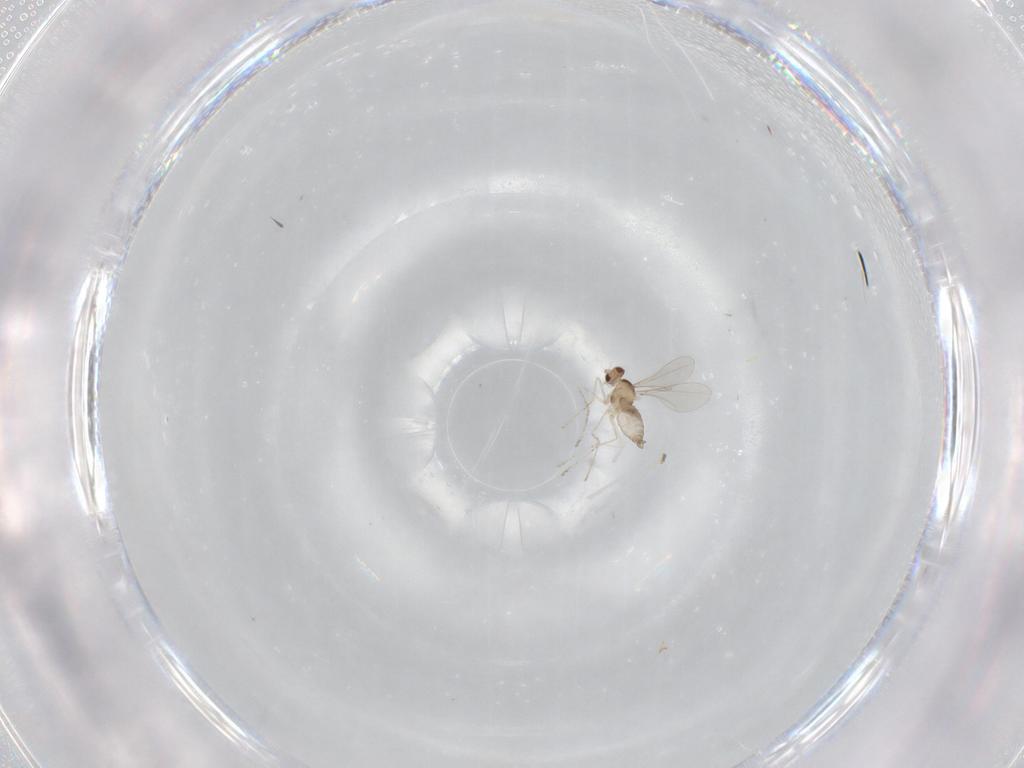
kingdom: Animalia
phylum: Arthropoda
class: Insecta
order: Diptera
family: Cecidomyiidae
